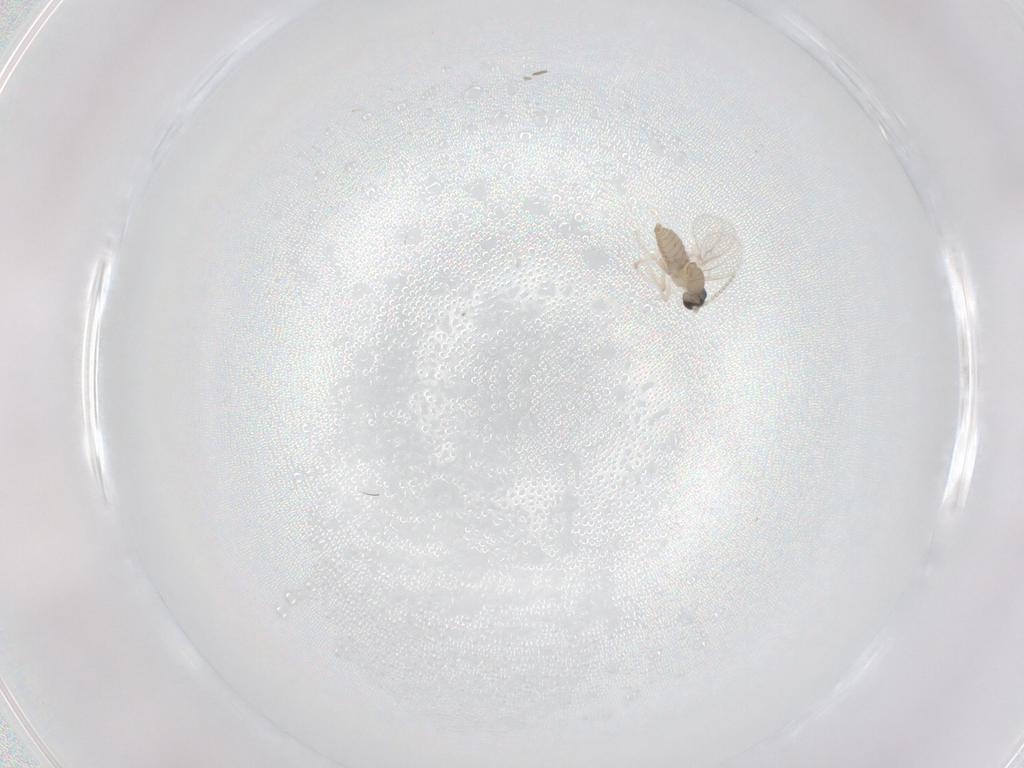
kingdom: Animalia
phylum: Arthropoda
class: Insecta
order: Diptera
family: Cecidomyiidae
